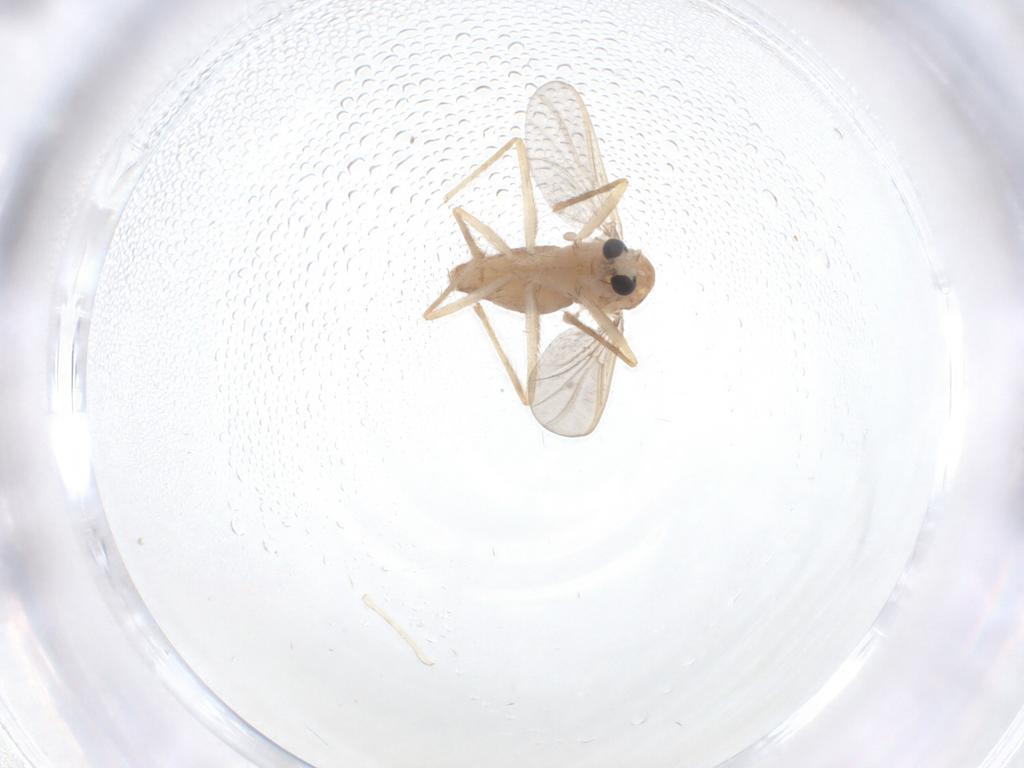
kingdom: Animalia
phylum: Arthropoda
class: Insecta
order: Diptera
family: Chironomidae
